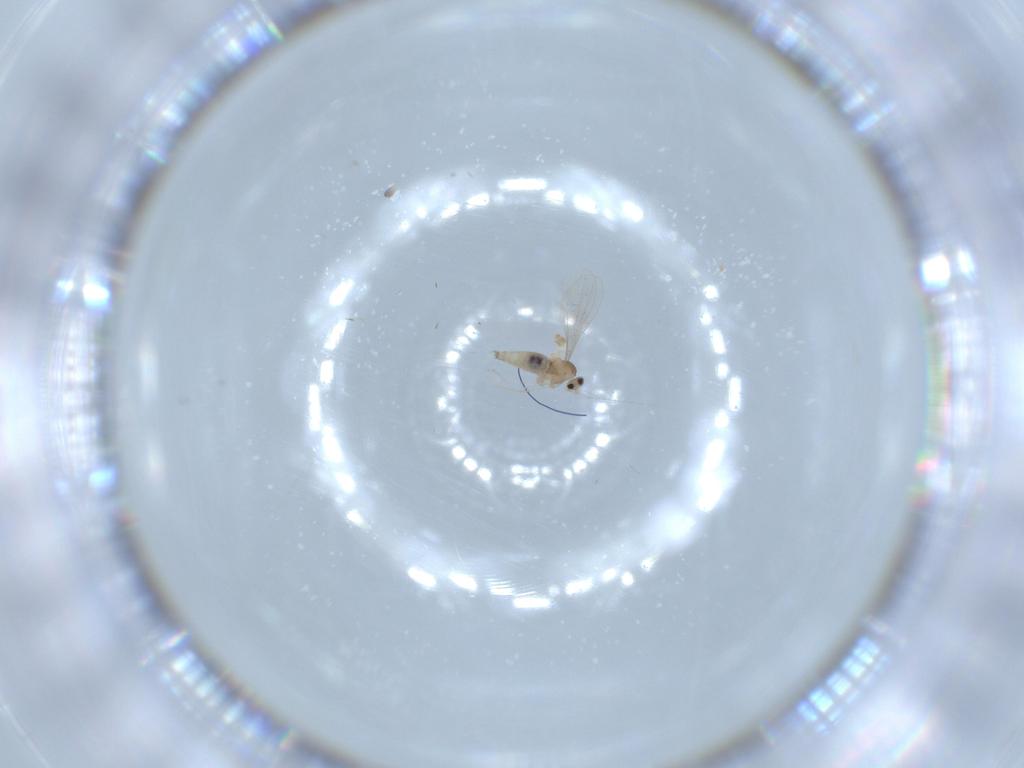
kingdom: Animalia
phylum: Arthropoda
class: Insecta
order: Diptera
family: Cecidomyiidae
